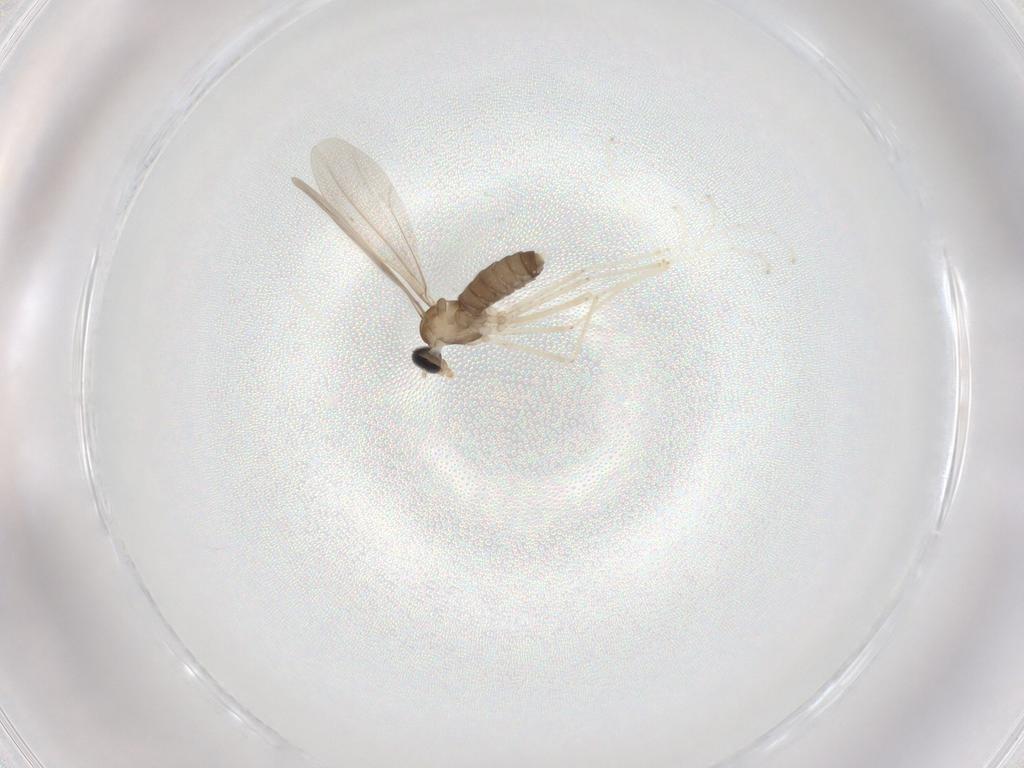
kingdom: Animalia
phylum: Arthropoda
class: Insecta
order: Diptera
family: Cecidomyiidae
